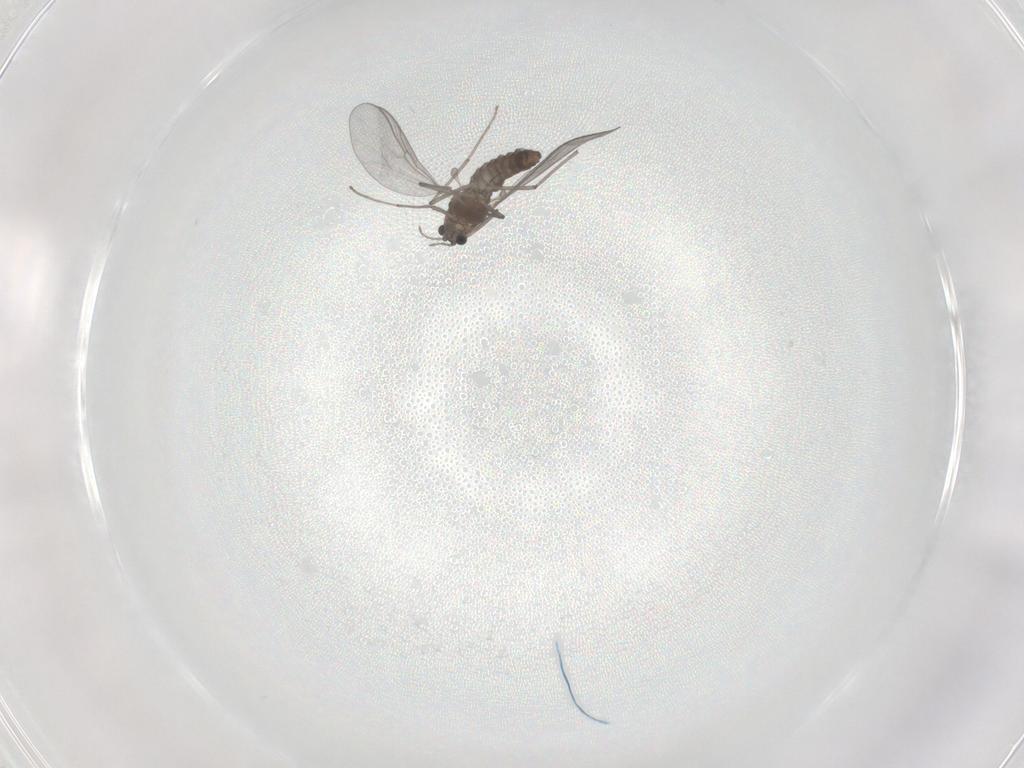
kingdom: Animalia
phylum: Arthropoda
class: Insecta
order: Diptera
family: Chironomidae
